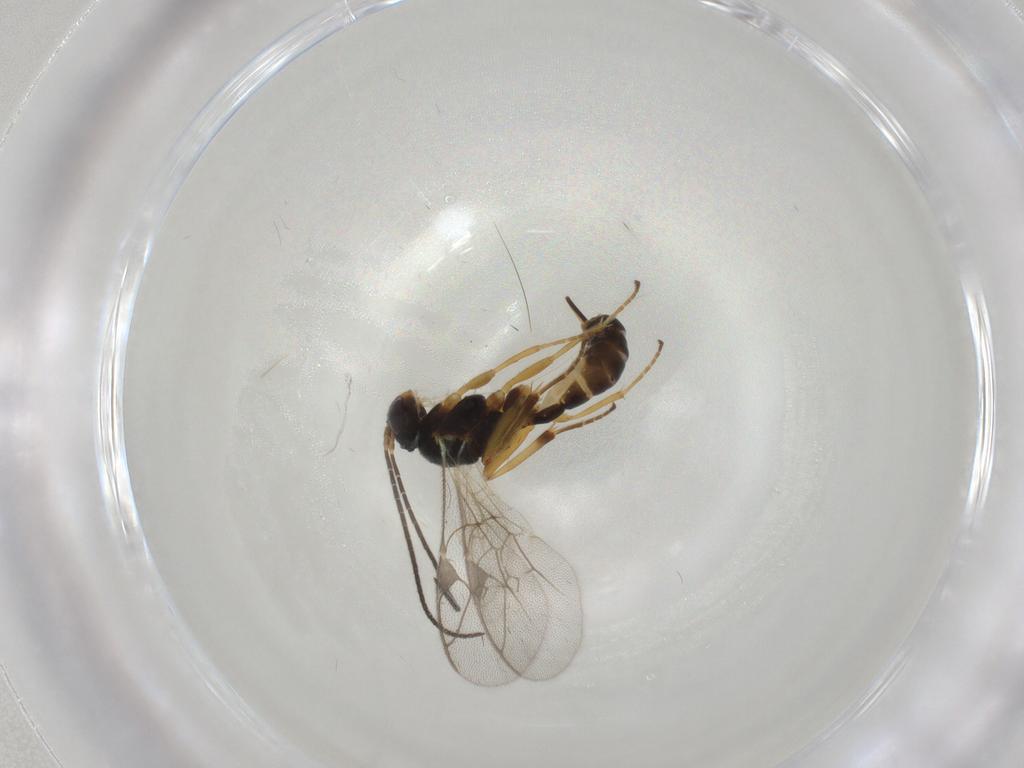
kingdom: Animalia
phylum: Arthropoda
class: Insecta
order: Hymenoptera
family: Ichneumonidae
